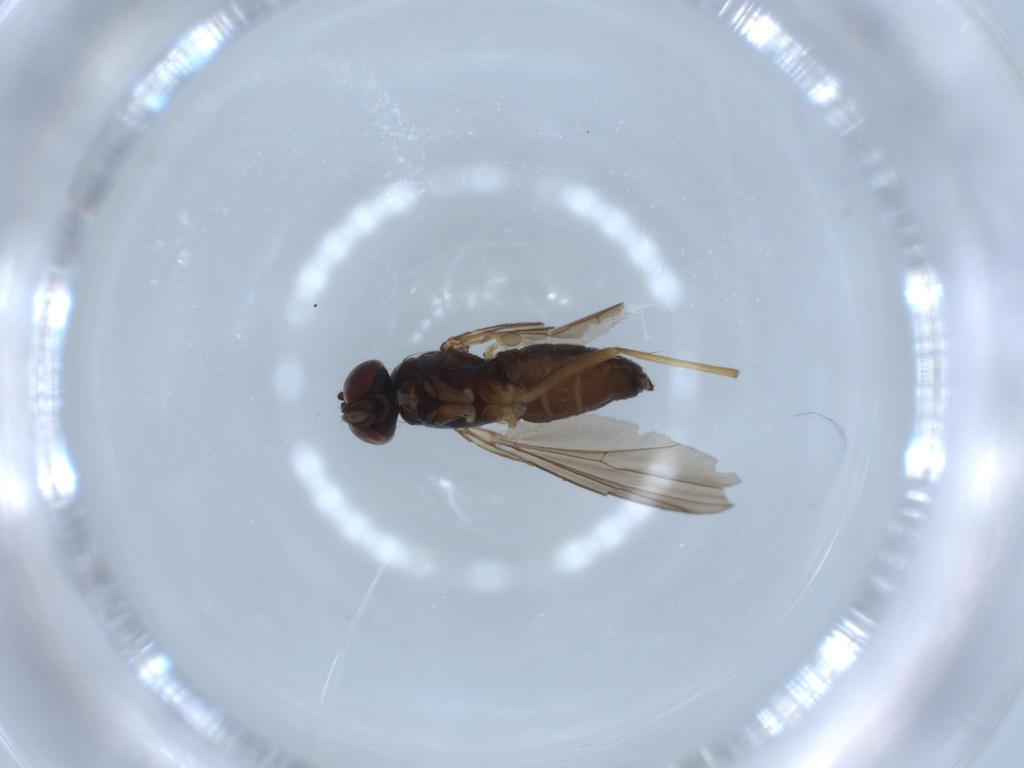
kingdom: Animalia
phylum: Arthropoda
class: Insecta
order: Diptera
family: Dolichopodidae
